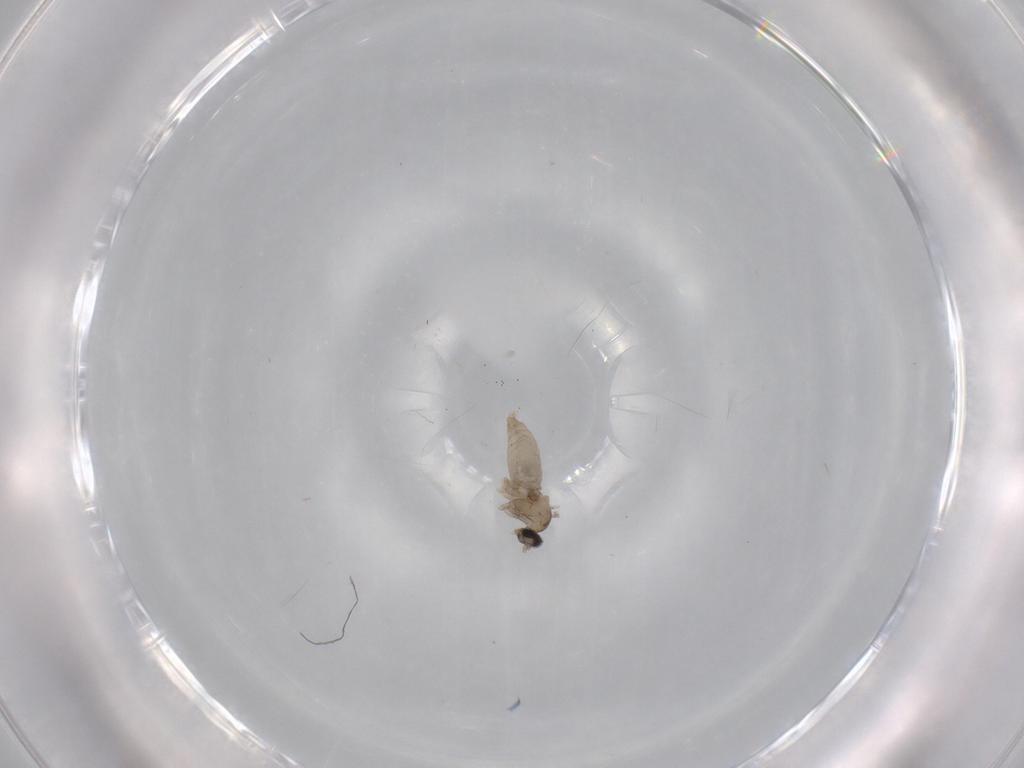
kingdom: Animalia
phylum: Arthropoda
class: Insecta
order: Diptera
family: Cecidomyiidae
